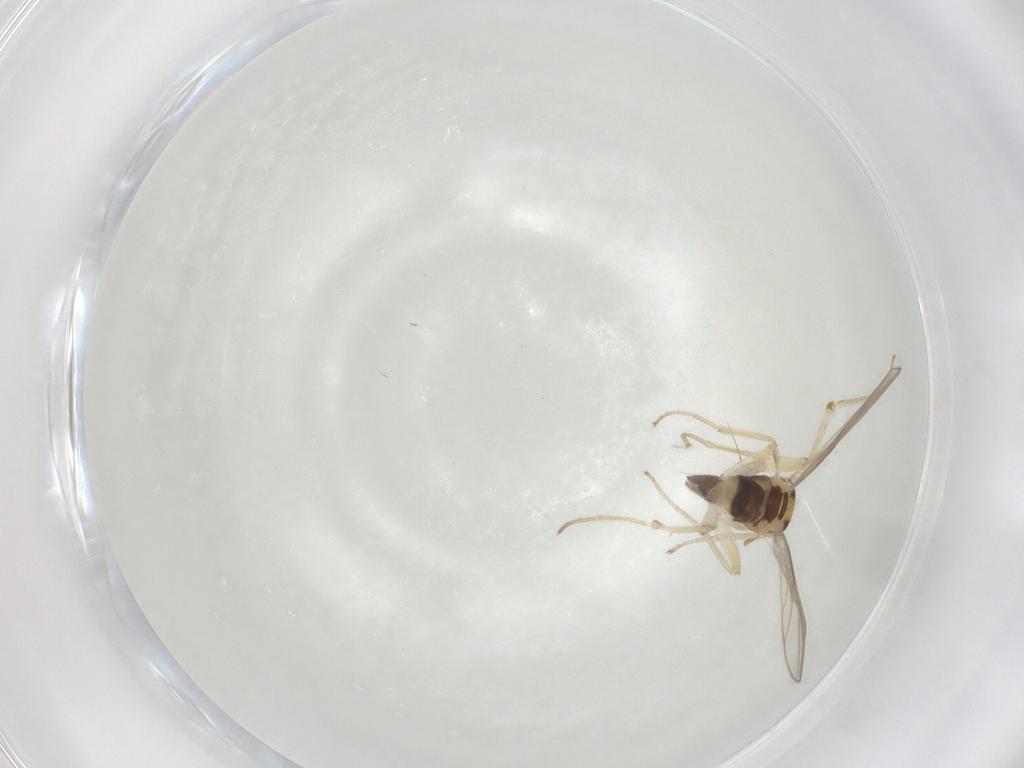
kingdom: Animalia
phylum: Arthropoda
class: Insecta
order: Diptera
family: Hybotidae
